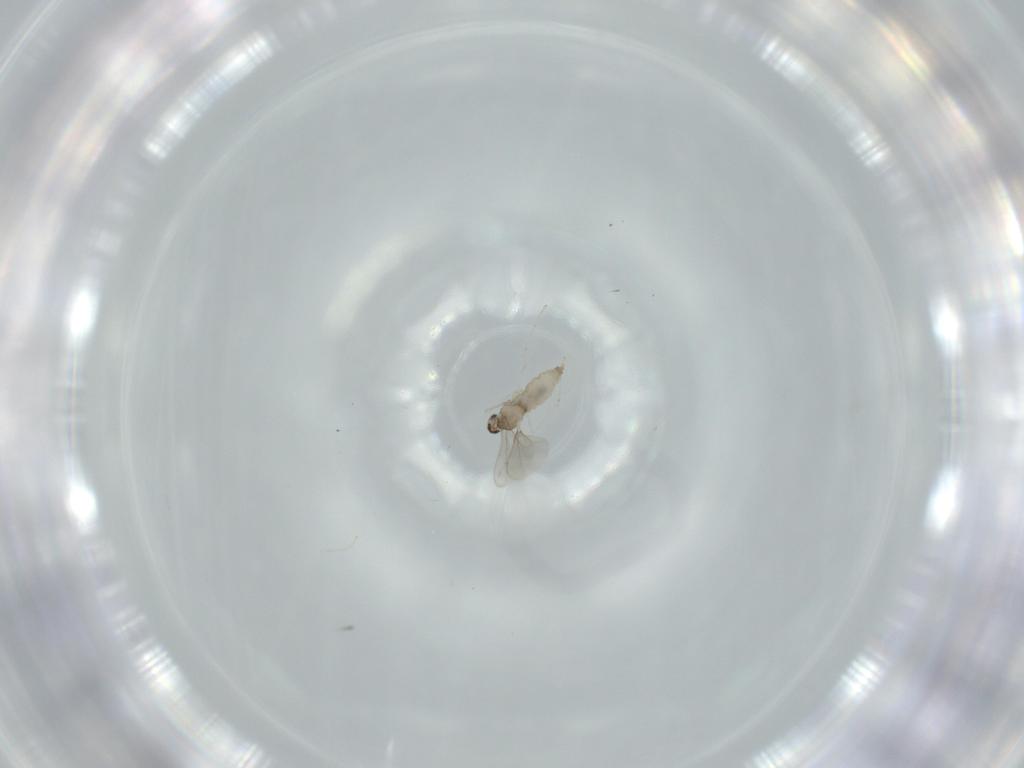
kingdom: Animalia
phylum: Arthropoda
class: Insecta
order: Diptera
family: Cecidomyiidae
